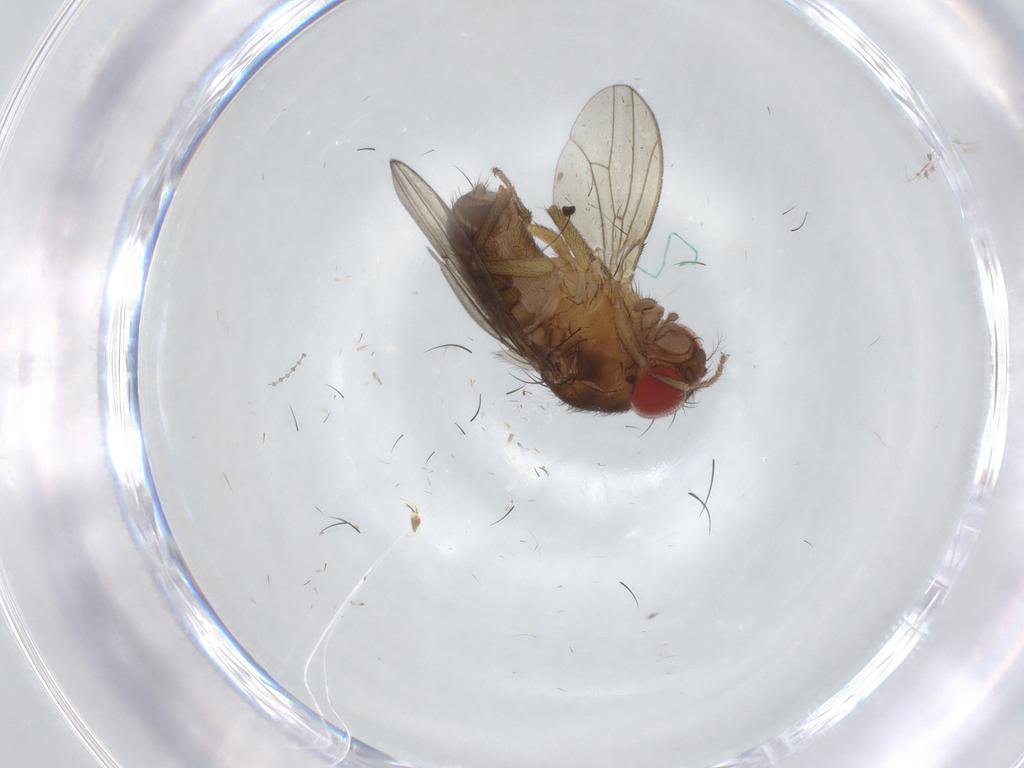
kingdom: Animalia
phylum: Arthropoda
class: Insecta
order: Diptera
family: Drosophilidae
